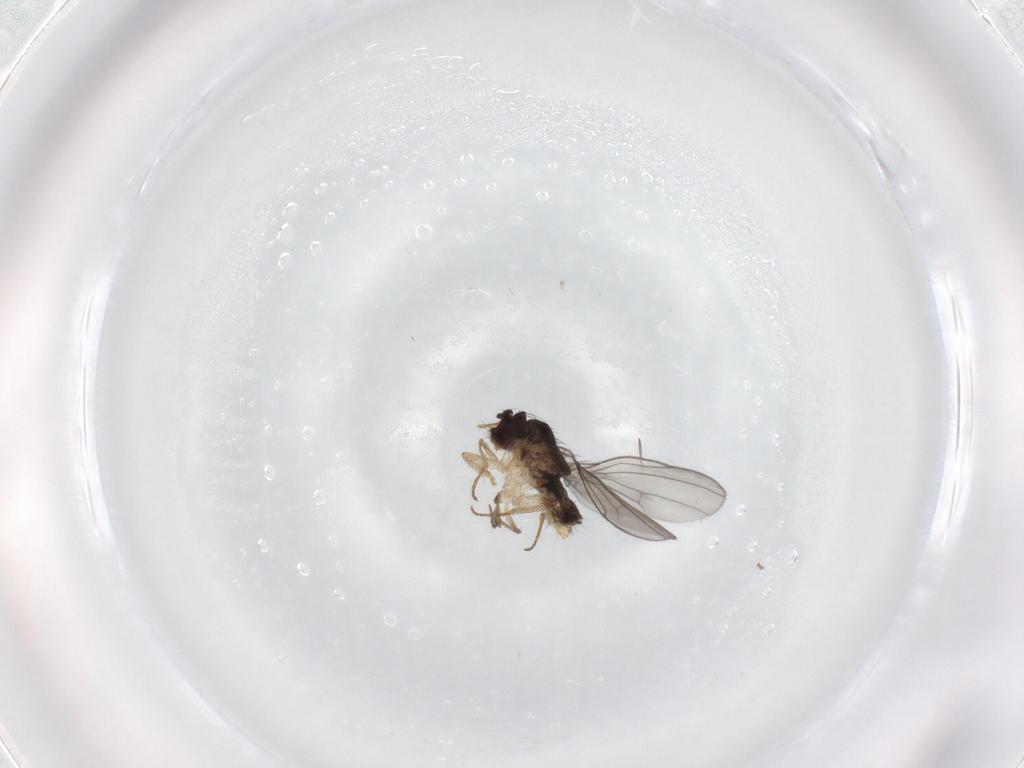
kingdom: Animalia
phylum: Arthropoda
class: Insecta
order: Diptera
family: Drosophilidae
